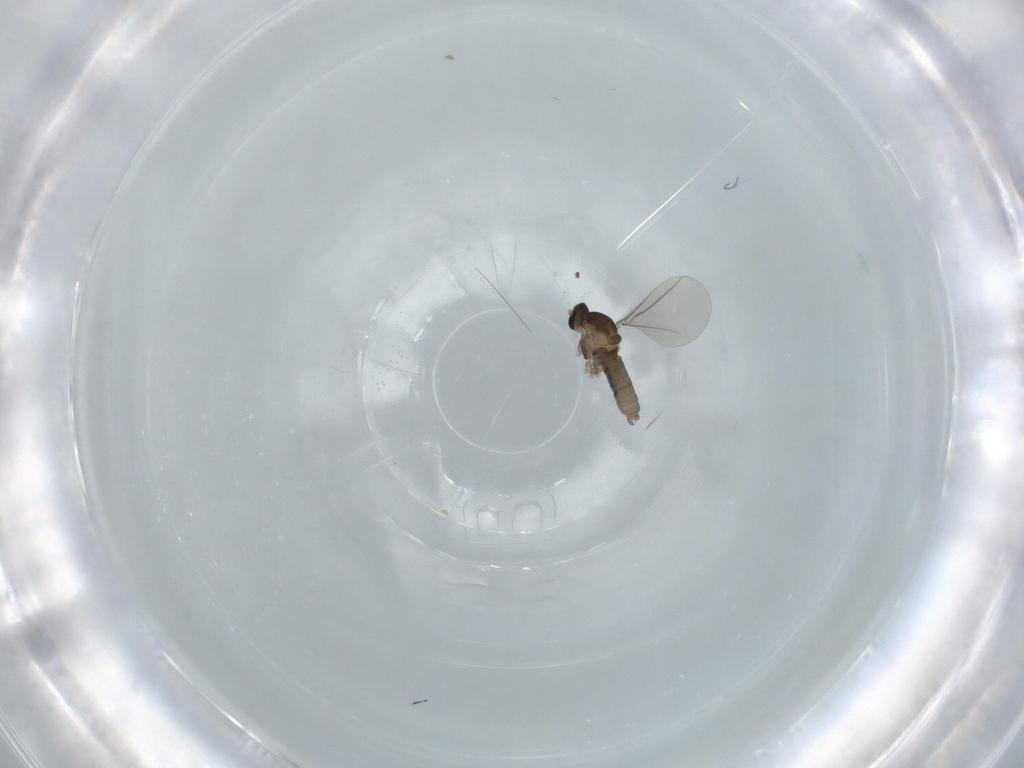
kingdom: Animalia
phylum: Arthropoda
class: Insecta
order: Diptera
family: Cecidomyiidae
